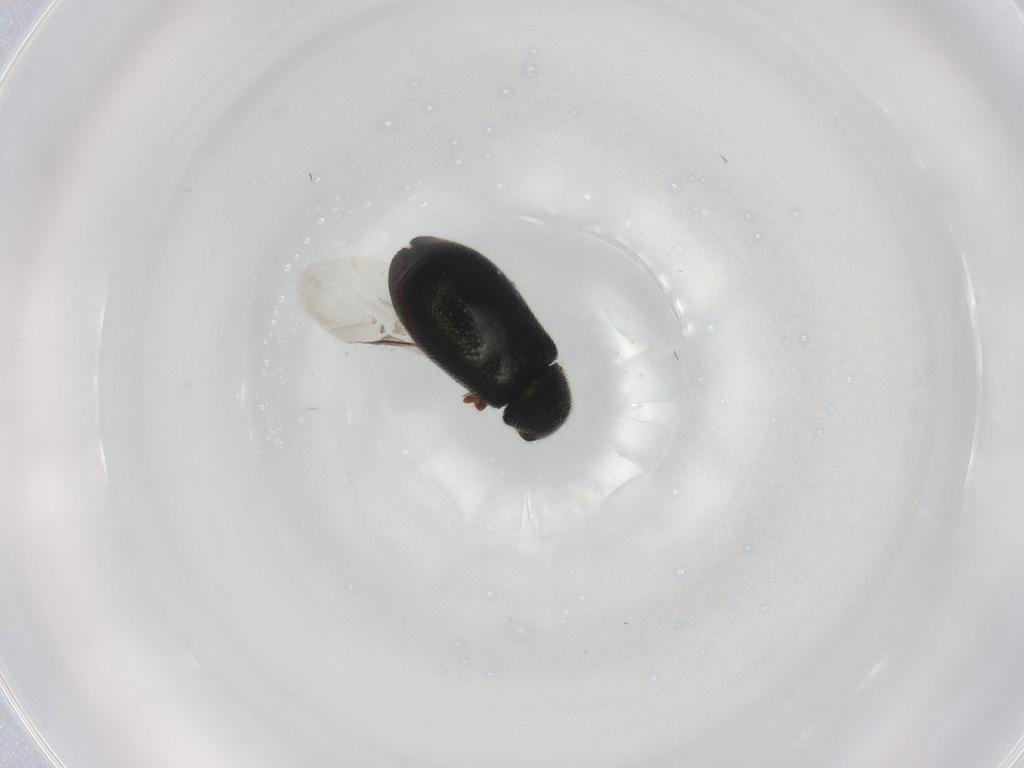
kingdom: Animalia
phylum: Arthropoda
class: Insecta
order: Coleoptera
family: Melyridae
